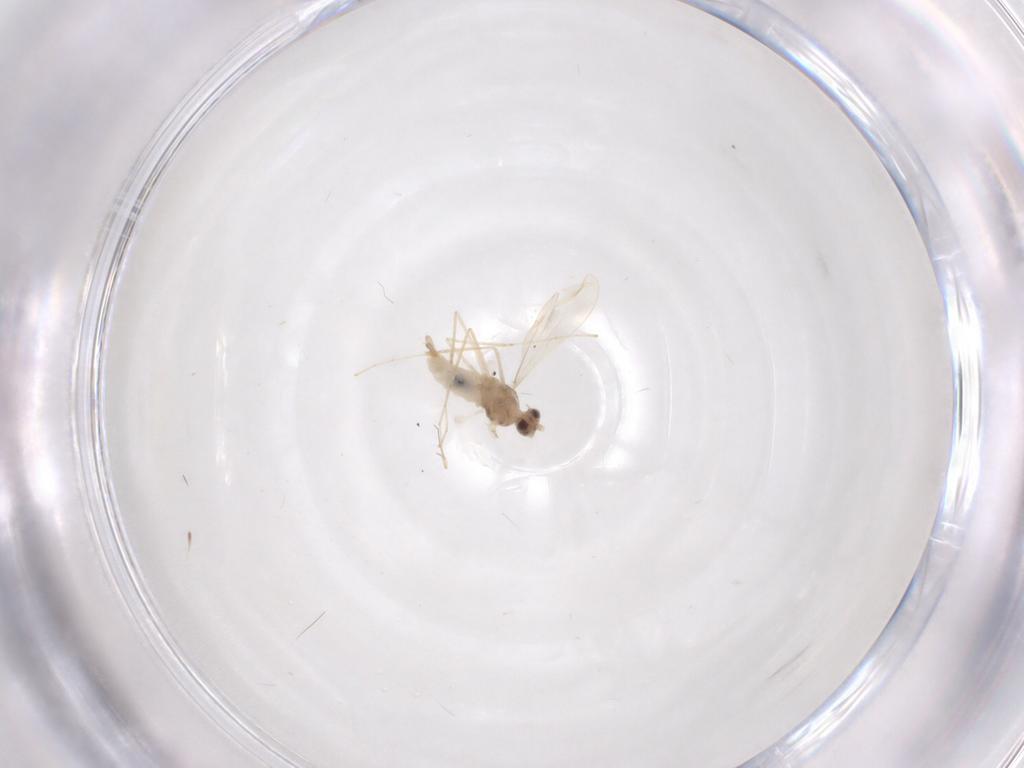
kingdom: Animalia
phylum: Arthropoda
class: Insecta
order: Diptera
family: Cecidomyiidae
